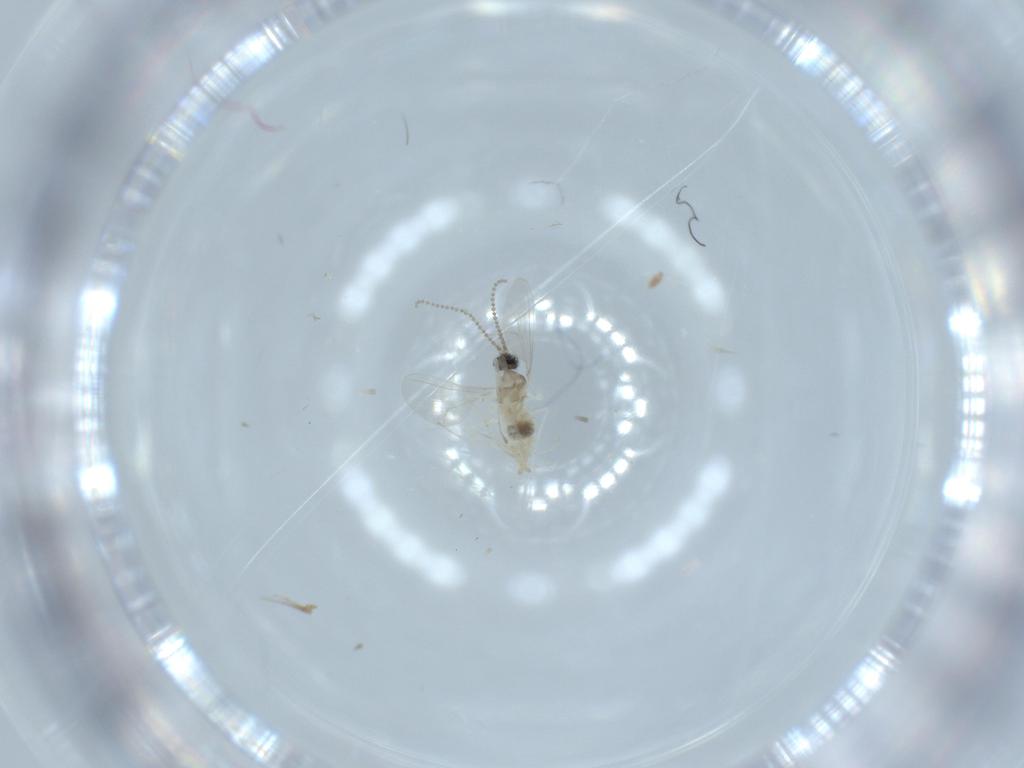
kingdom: Animalia
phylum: Arthropoda
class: Insecta
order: Diptera
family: Cecidomyiidae
